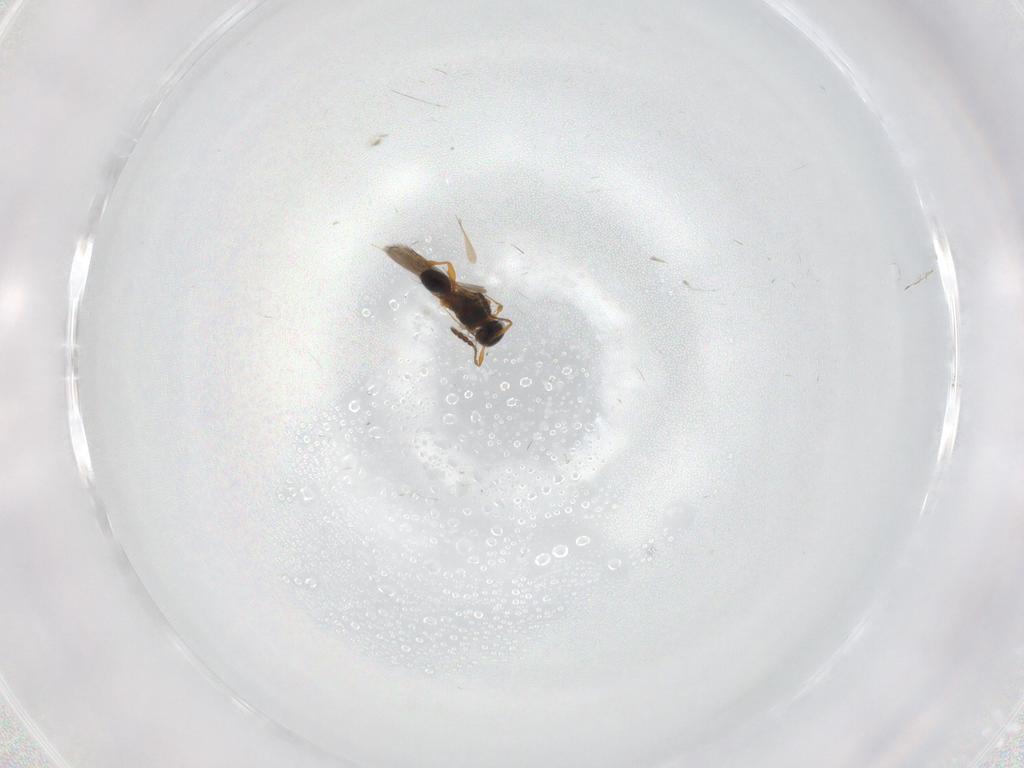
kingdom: Animalia
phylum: Arthropoda
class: Insecta
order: Hymenoptera
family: Platygastridae
